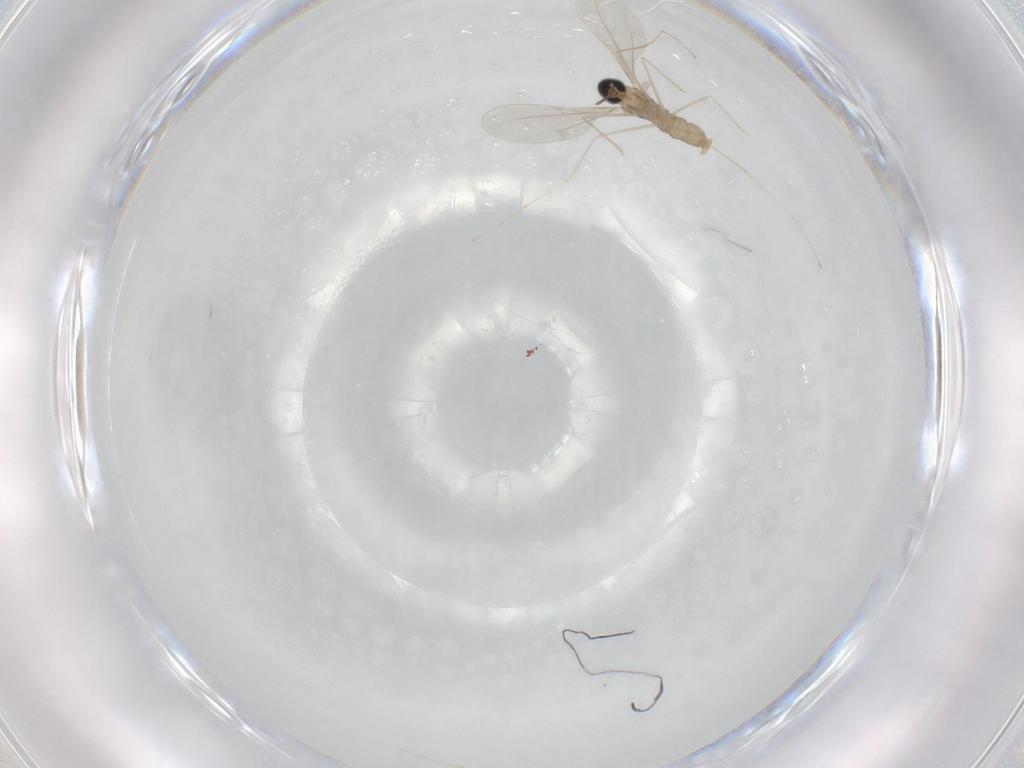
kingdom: Animalia
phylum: Arthropoda
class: Insecta
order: Diptera
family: Cecidomyiidae
